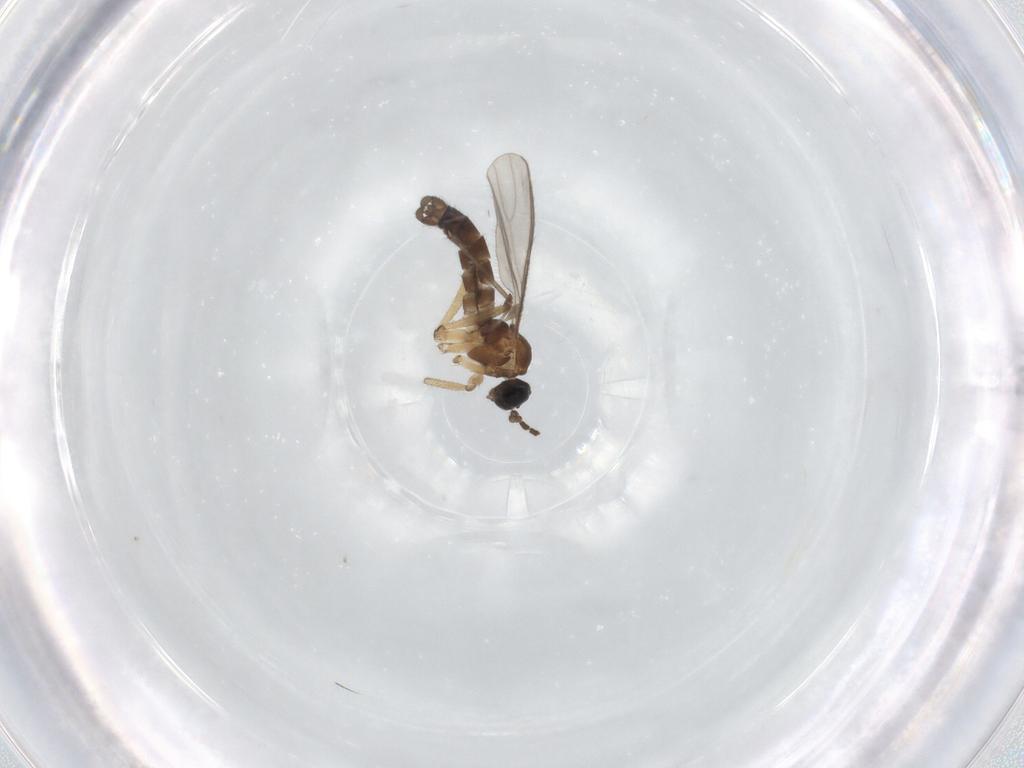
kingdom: Animalia
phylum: Arthropoda
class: Insecta
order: Diptera
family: Sciaridae
